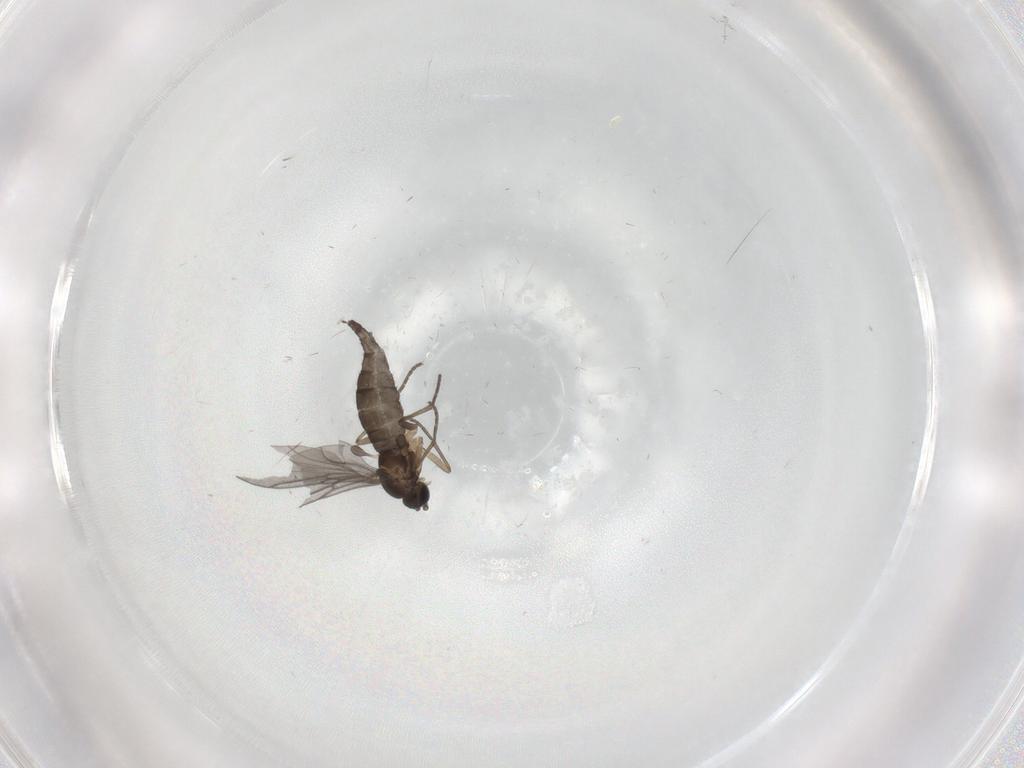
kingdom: Animalia
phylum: Arthropoda
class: Insecta
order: Diptera
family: Sciaridae
